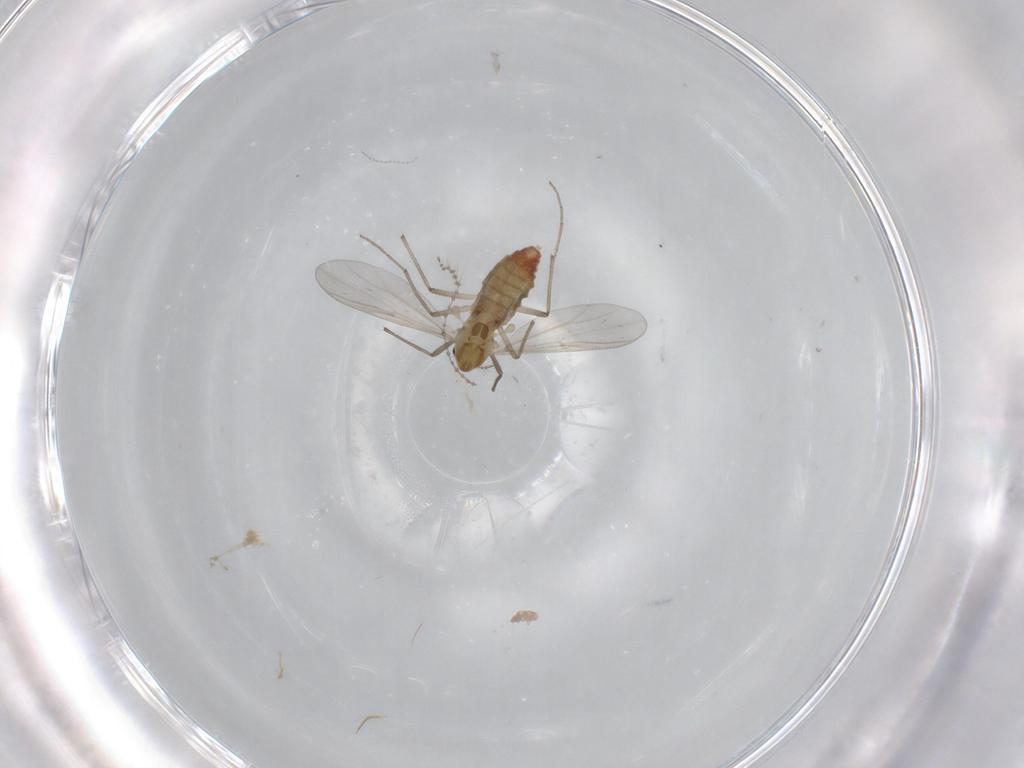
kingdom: Animalia
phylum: Arthropoda
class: Insecta
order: Diptera
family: Chironomidae
